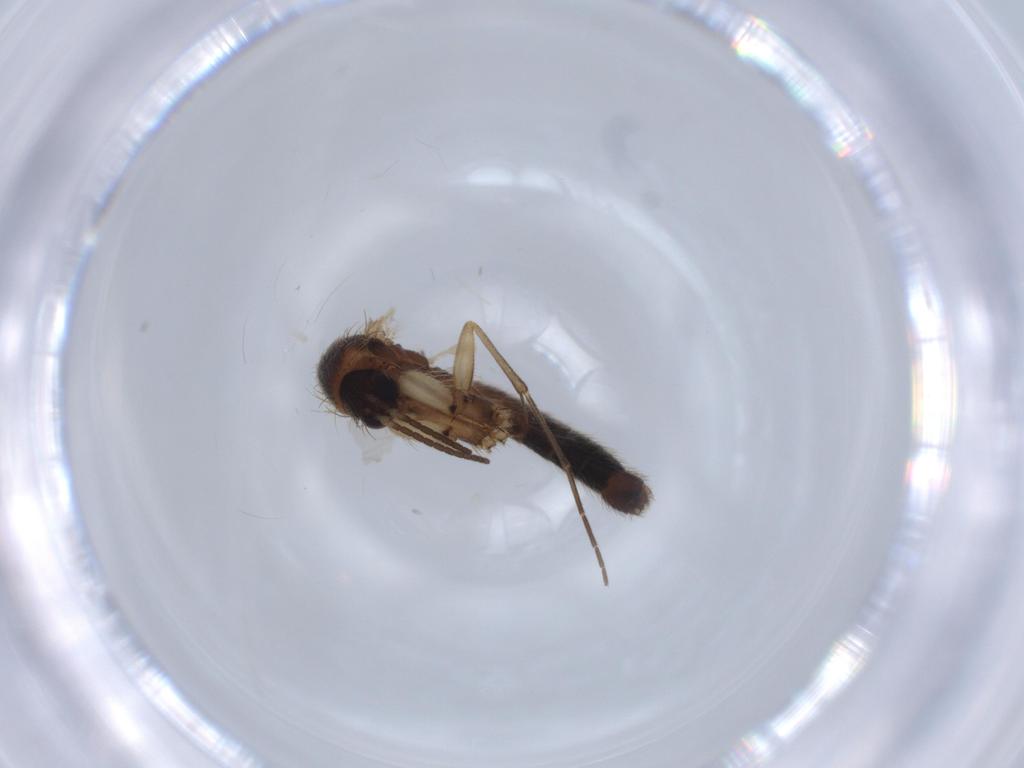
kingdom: Animalia
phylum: Arthropoda
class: Insecta
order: Diptera
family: Mycetophilidae
